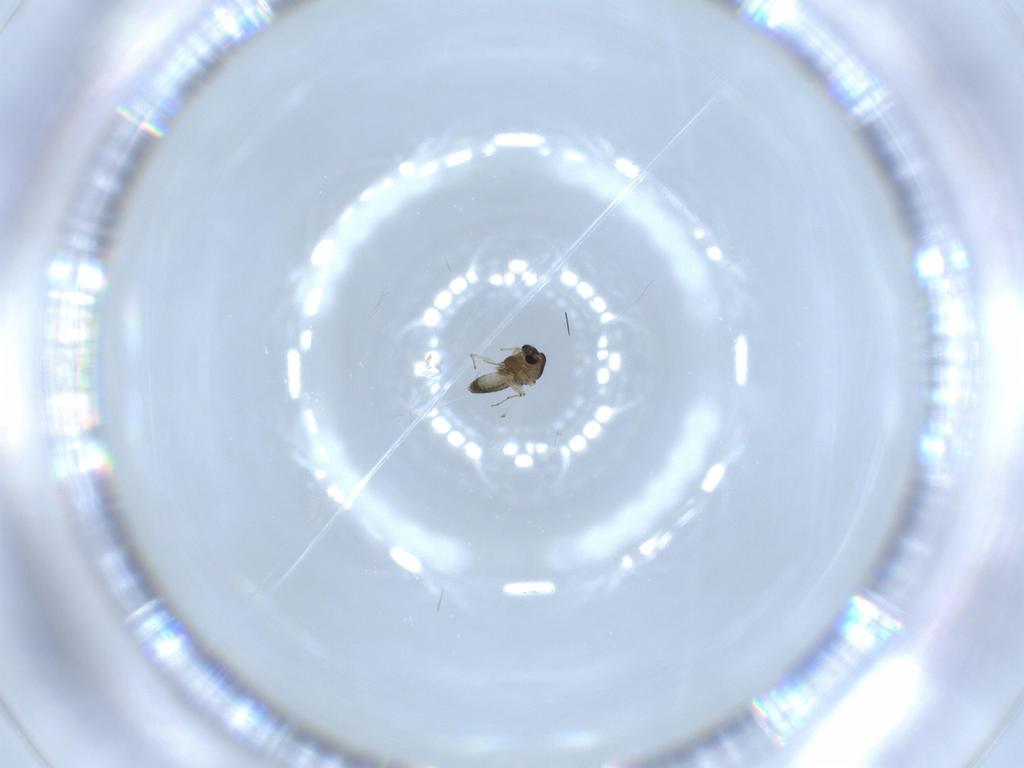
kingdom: Animalia
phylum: Arthropoda
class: Insecta
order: Diptera
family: Chironomidae
